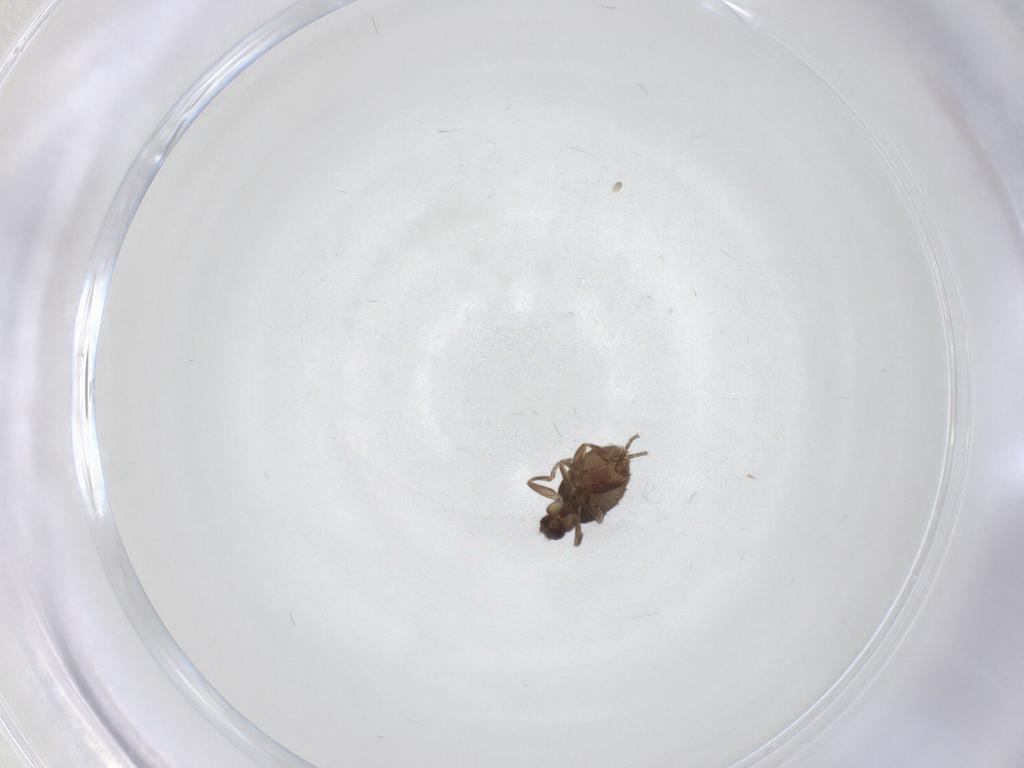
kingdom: Animalia
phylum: Arthropoda
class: Insecta
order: Diptera
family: Phoridae
